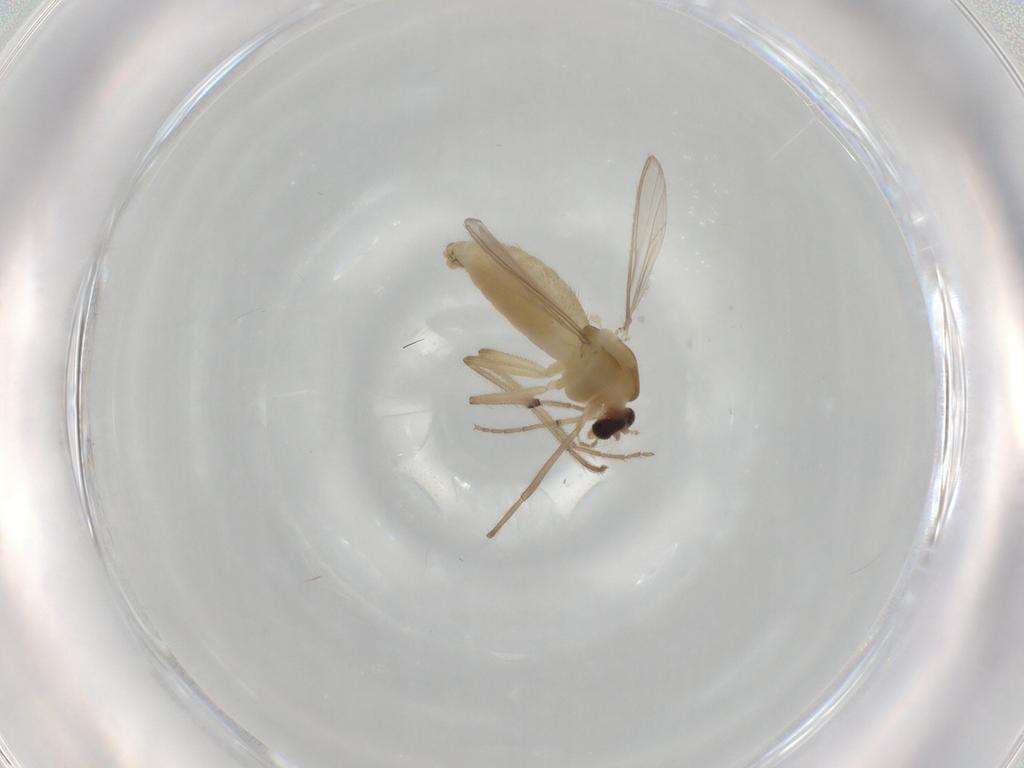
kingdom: Animalia
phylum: Arthropoda
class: Insecta
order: Diptera
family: Chironomidae
